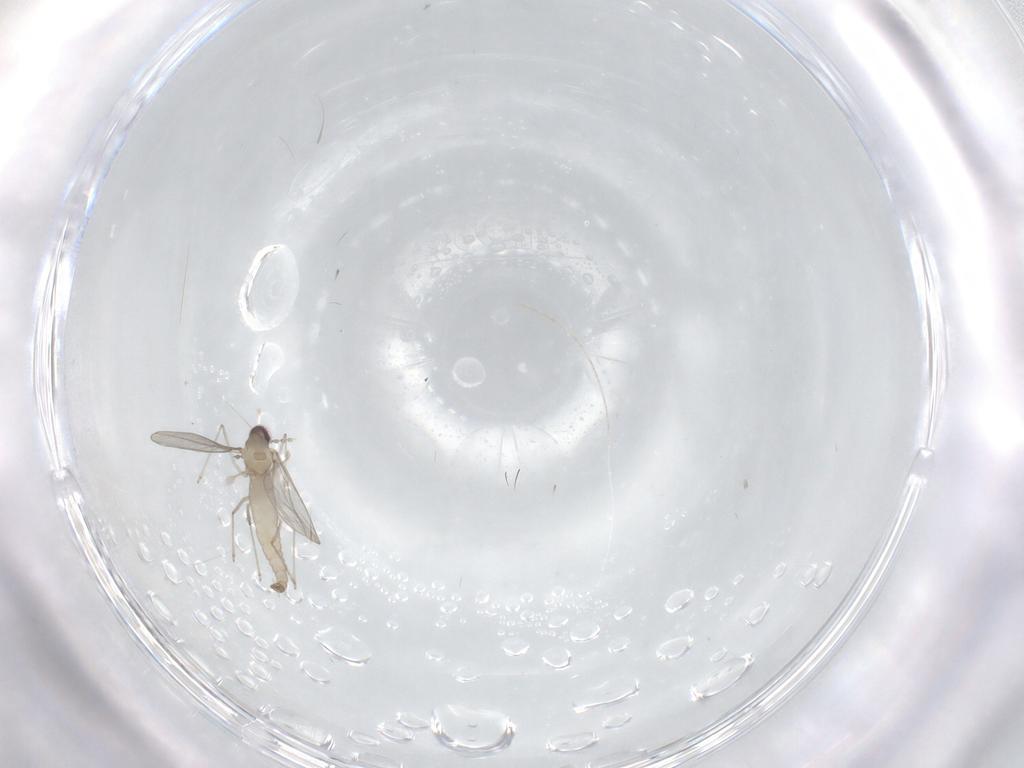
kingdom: Animalia
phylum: Arthropoda
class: Insecta
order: Diptera
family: Cecidomyiidae
